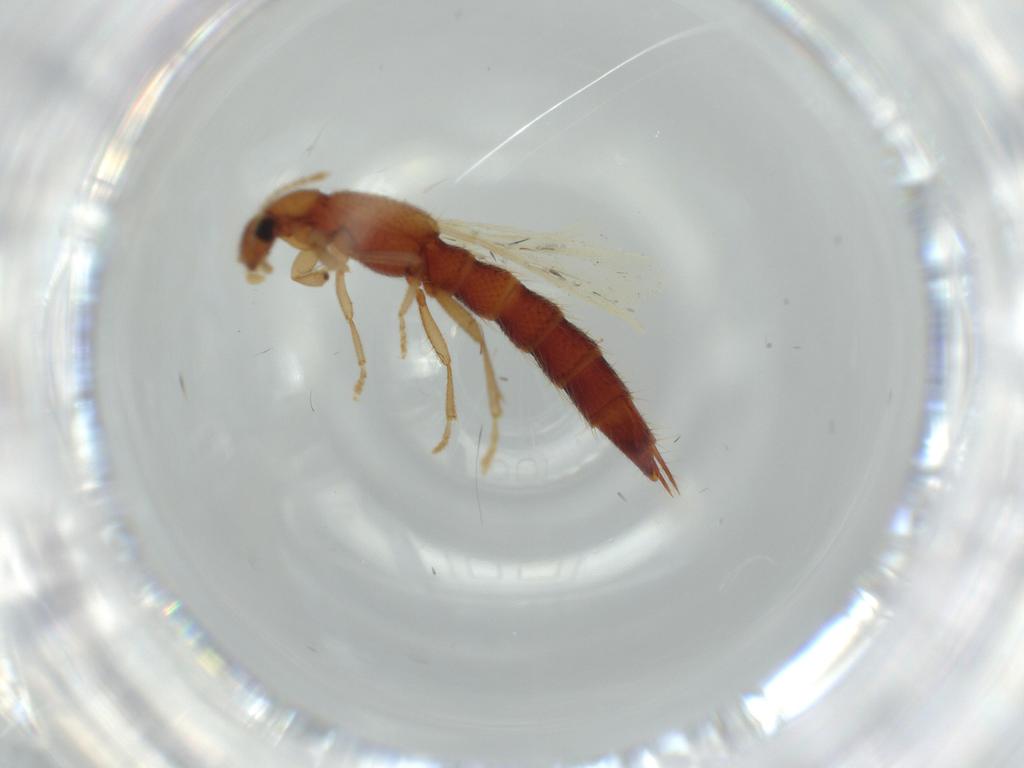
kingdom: Animalia
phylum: Arthropoda
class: Insecta
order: Coleoptera
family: Staphylinidae
